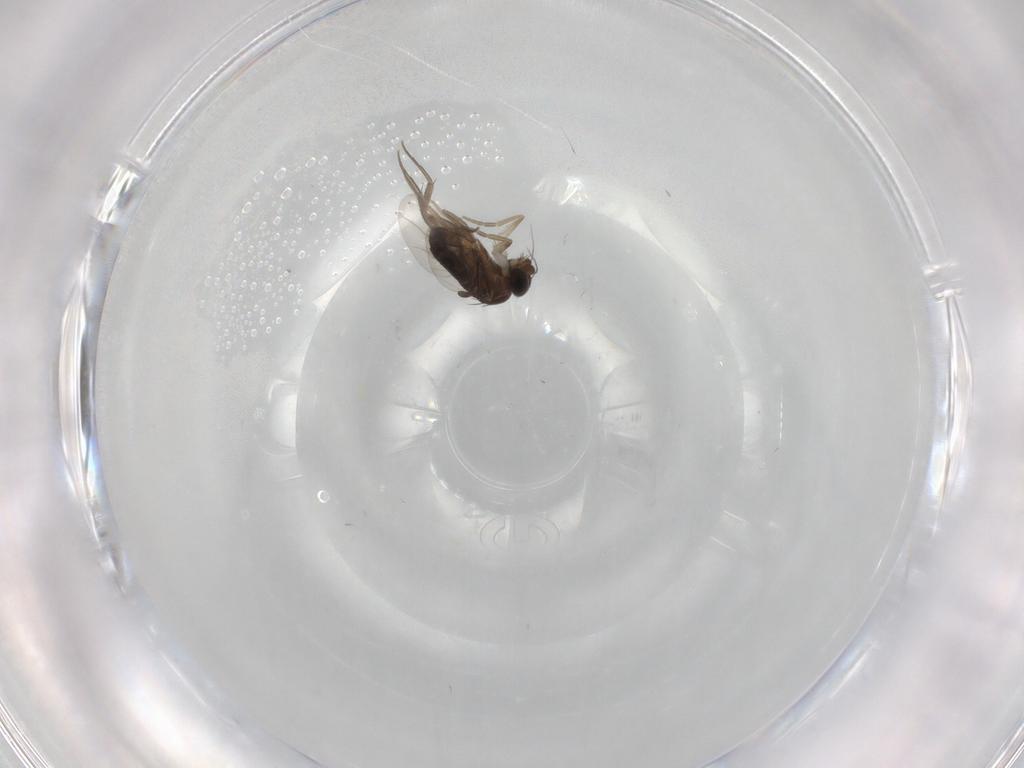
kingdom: Animalia
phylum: Arthropoda
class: Insecta
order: Diptera
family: Phoridae
